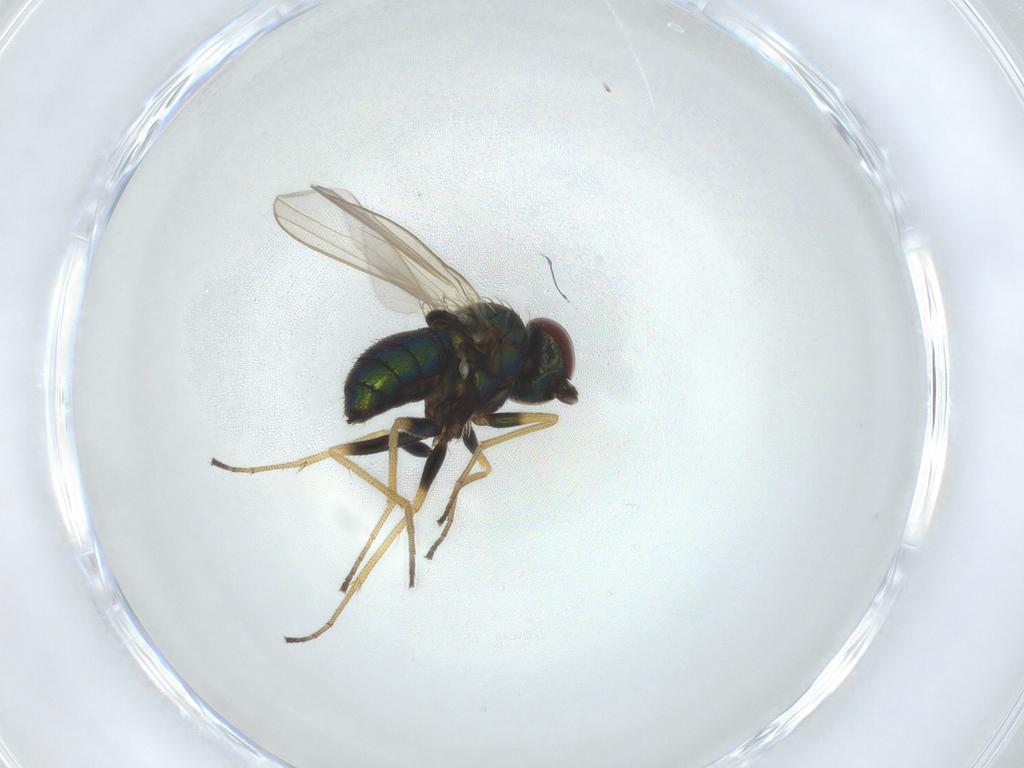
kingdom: Animalia
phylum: Arthropoda
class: Insecta
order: Diptera
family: Dolichopodidae
